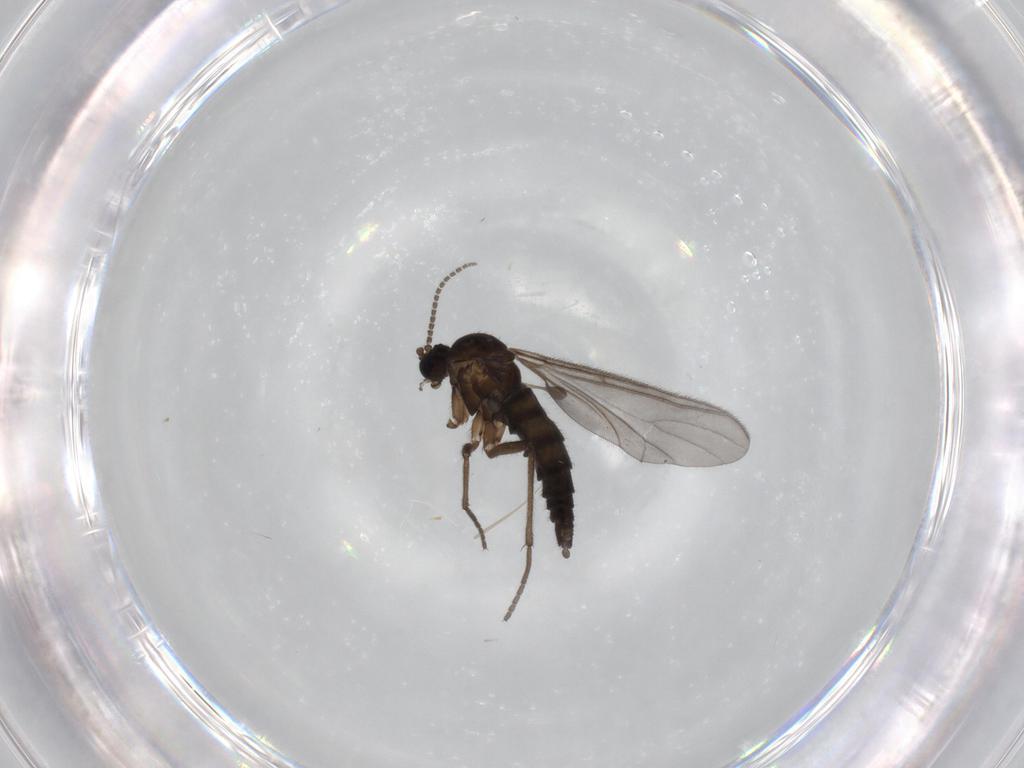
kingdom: Animalia
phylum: Arthropoda
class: Insecta
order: Diptera
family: Sciaridae
